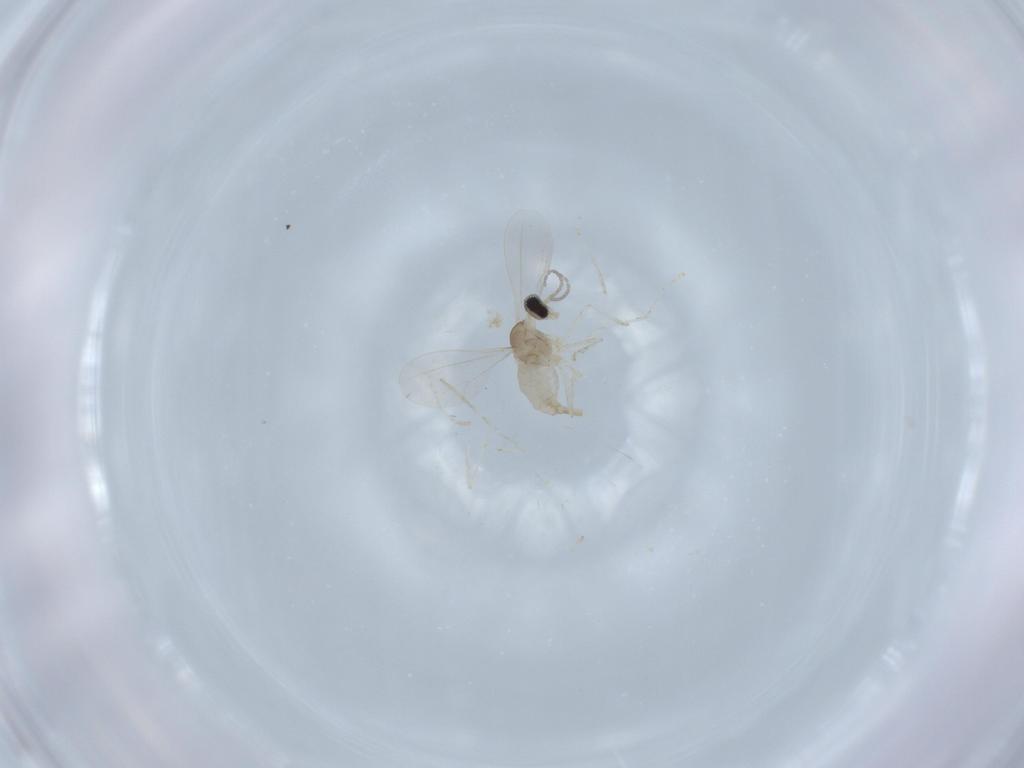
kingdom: Animalia
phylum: Arthropoda
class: Insecta
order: Diptera
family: Cecidomyiidae
